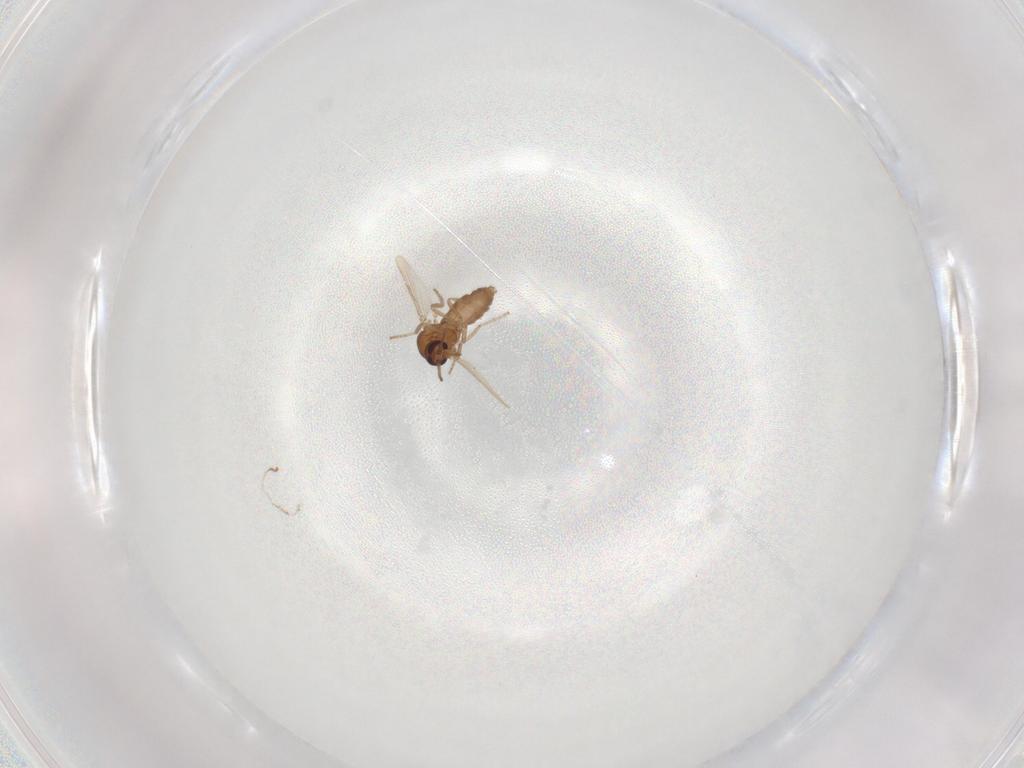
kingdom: Animalia
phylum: Arthropoda
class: Insecta
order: Diptera
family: Ceratopogonidae
